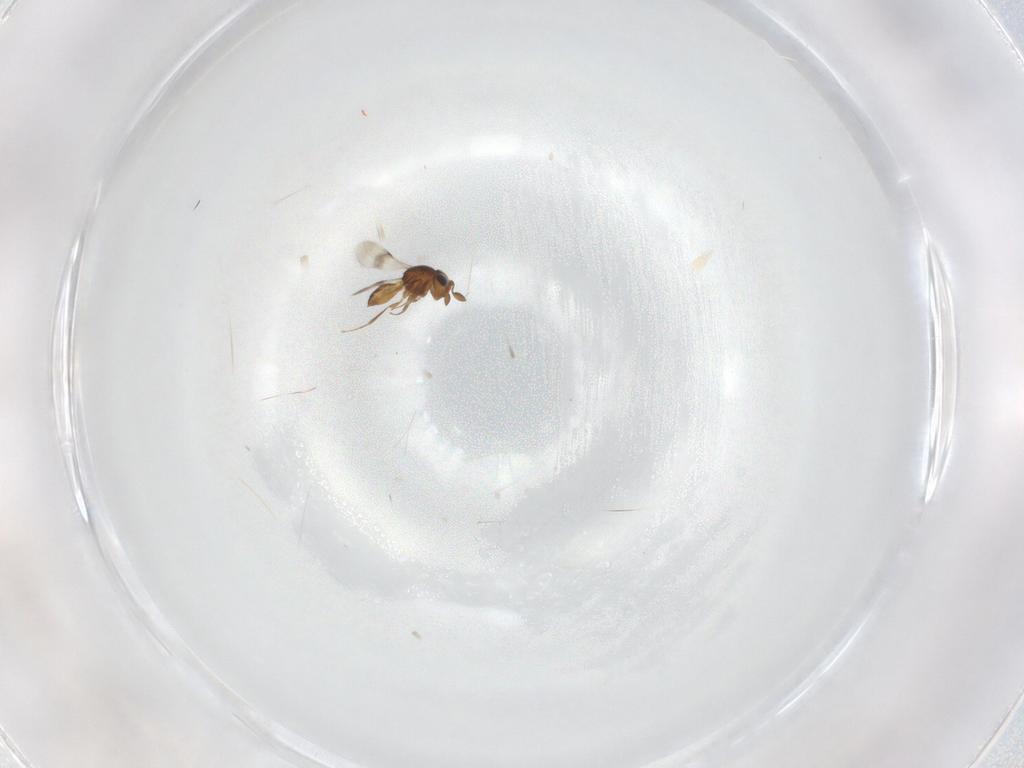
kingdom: Animalia
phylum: Arthropoda
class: Insecta
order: Hymenoptera
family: Scelionidae
